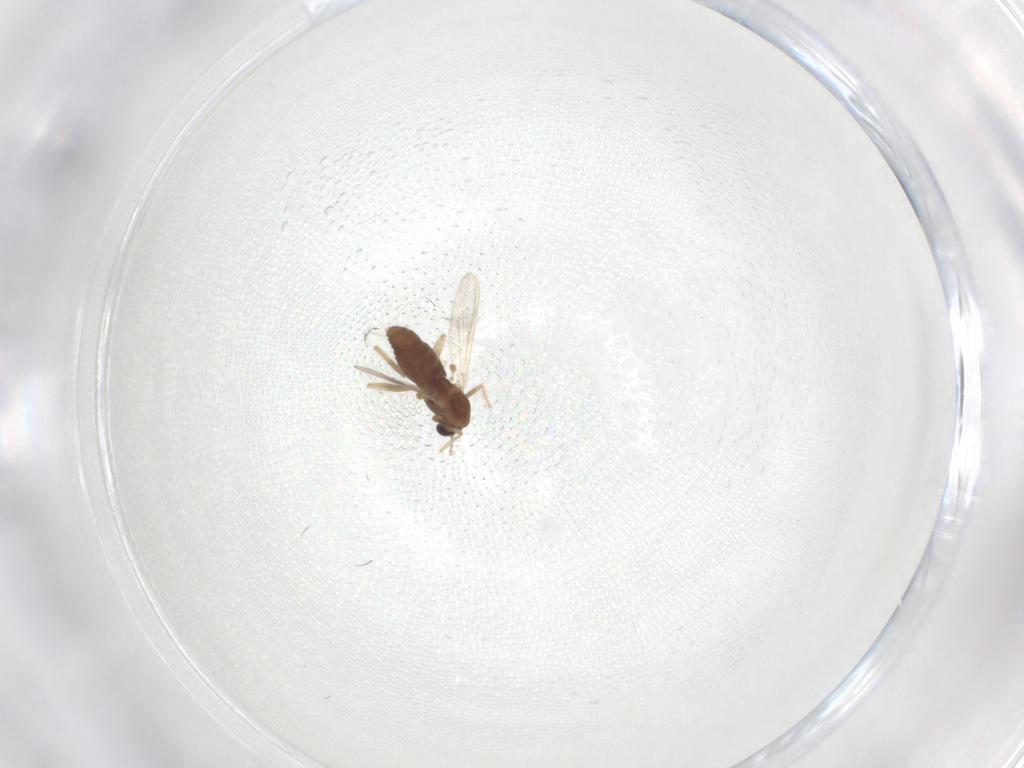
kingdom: Animalia
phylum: Arthropoda
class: Insecta
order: Diptera
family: Chironomidae
